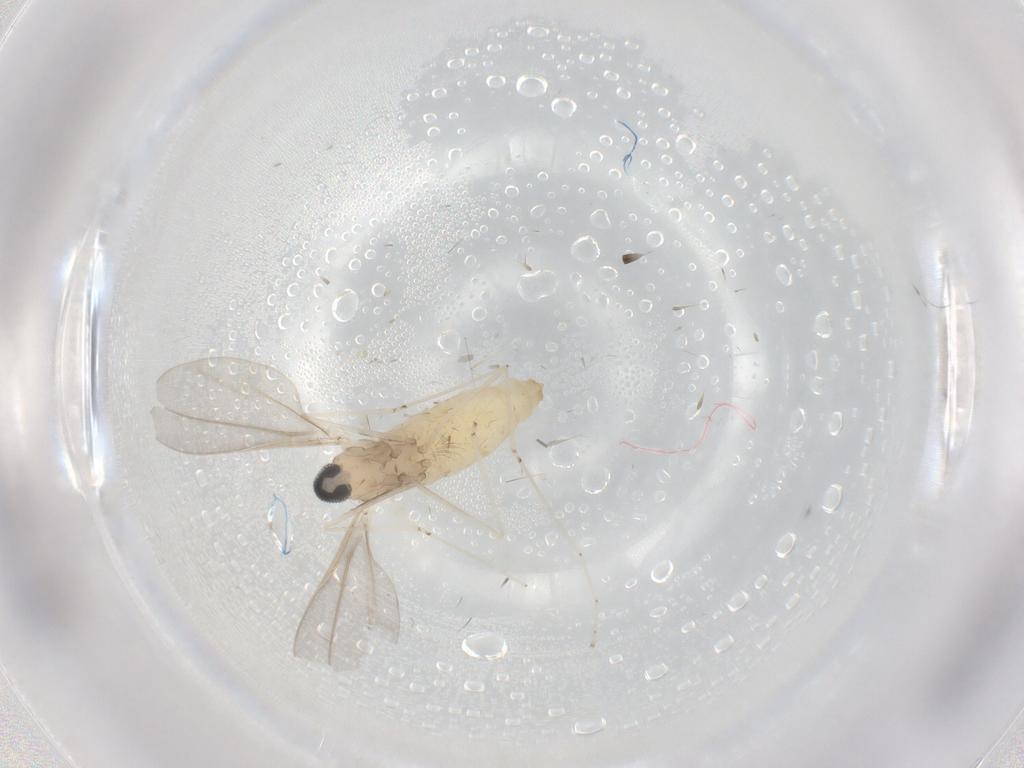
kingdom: Animalia
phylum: Arthropoda
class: Insecta
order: Diptera
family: Cecidomyiidae
